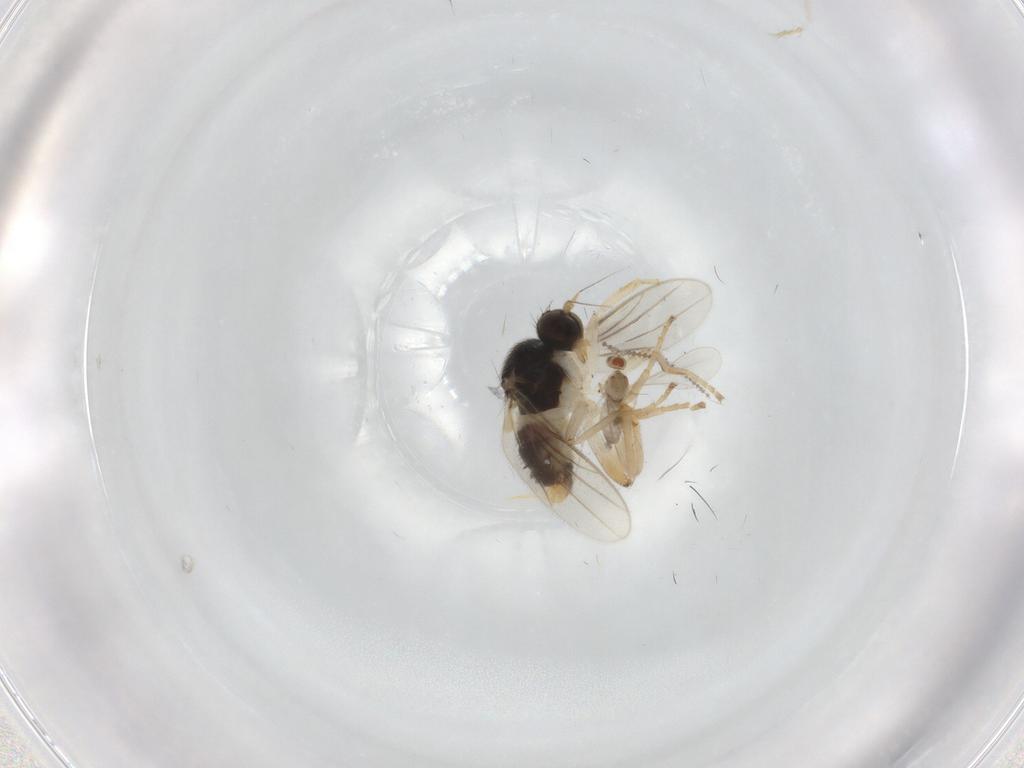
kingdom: Animalia
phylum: Arthropoda
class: Insecta
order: Diptera
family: Hybotidae
